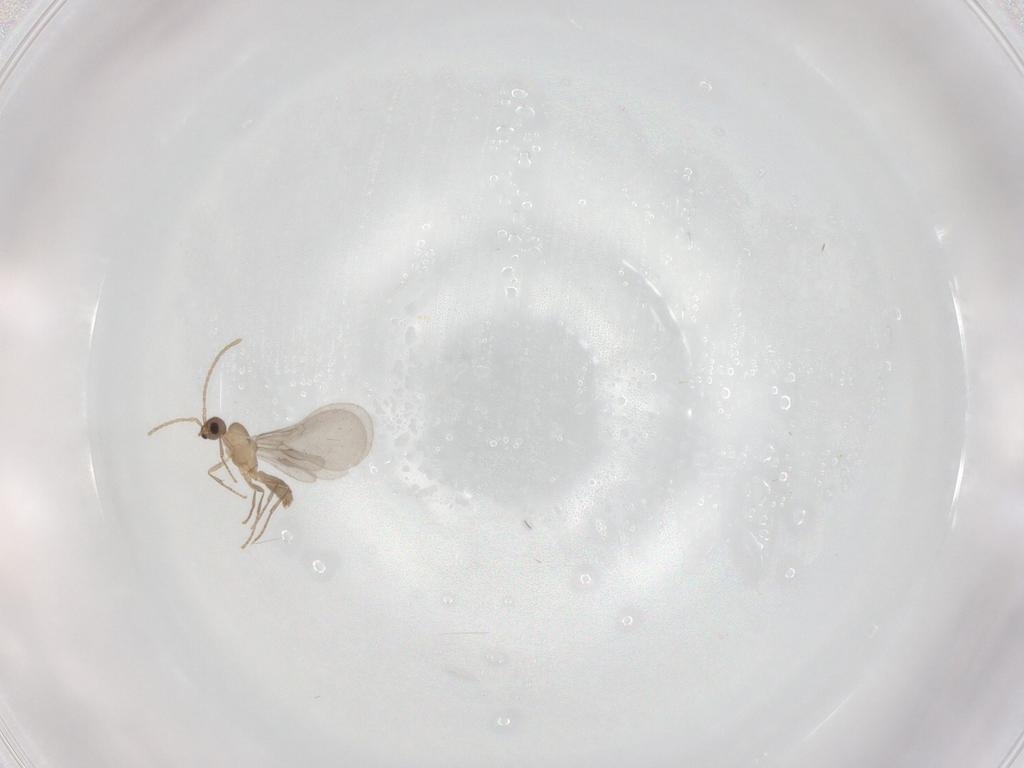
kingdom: Animalia
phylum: Arthropoda
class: Insecta
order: Hymenoptera
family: Formicidae
